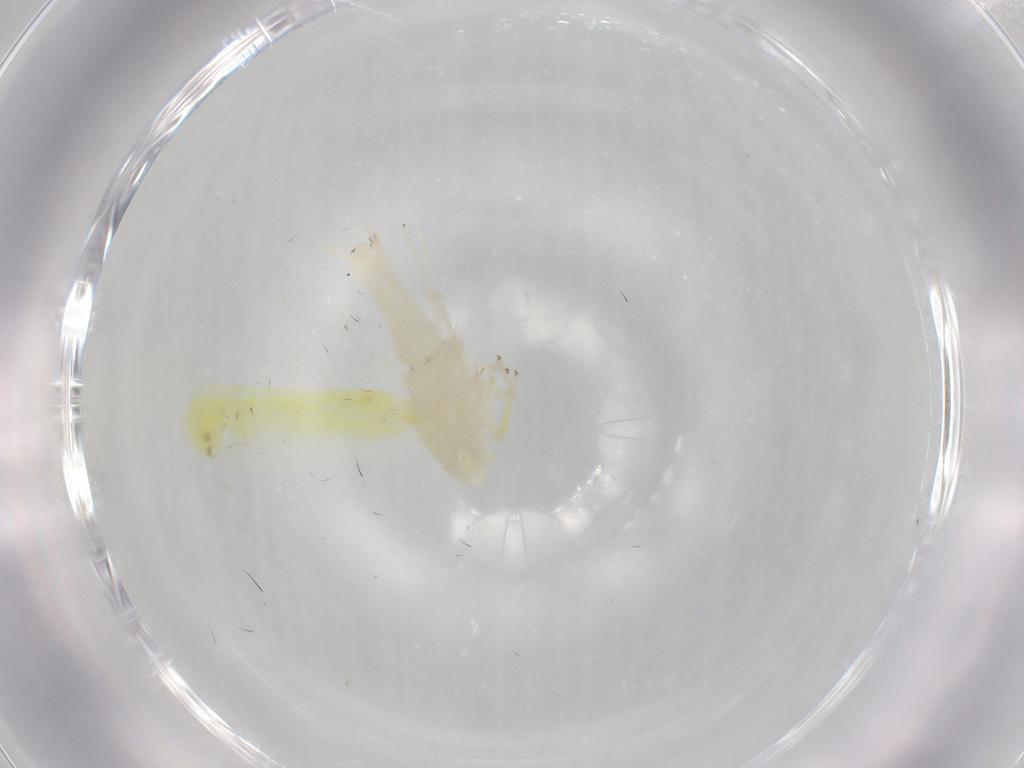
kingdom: Animalia
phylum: Arthropoda
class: Insecta
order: Hemiptera
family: Cicadellidae
